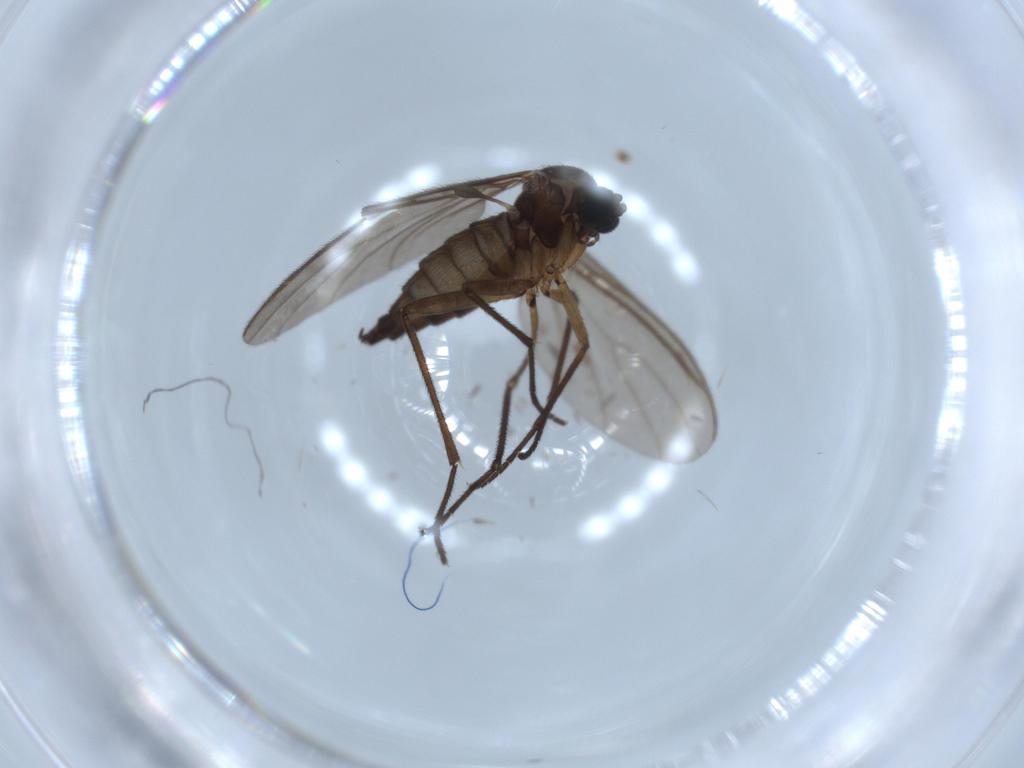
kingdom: Animalia
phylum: Arthropoda
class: Insecta
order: Diptera
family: Sciaridae
